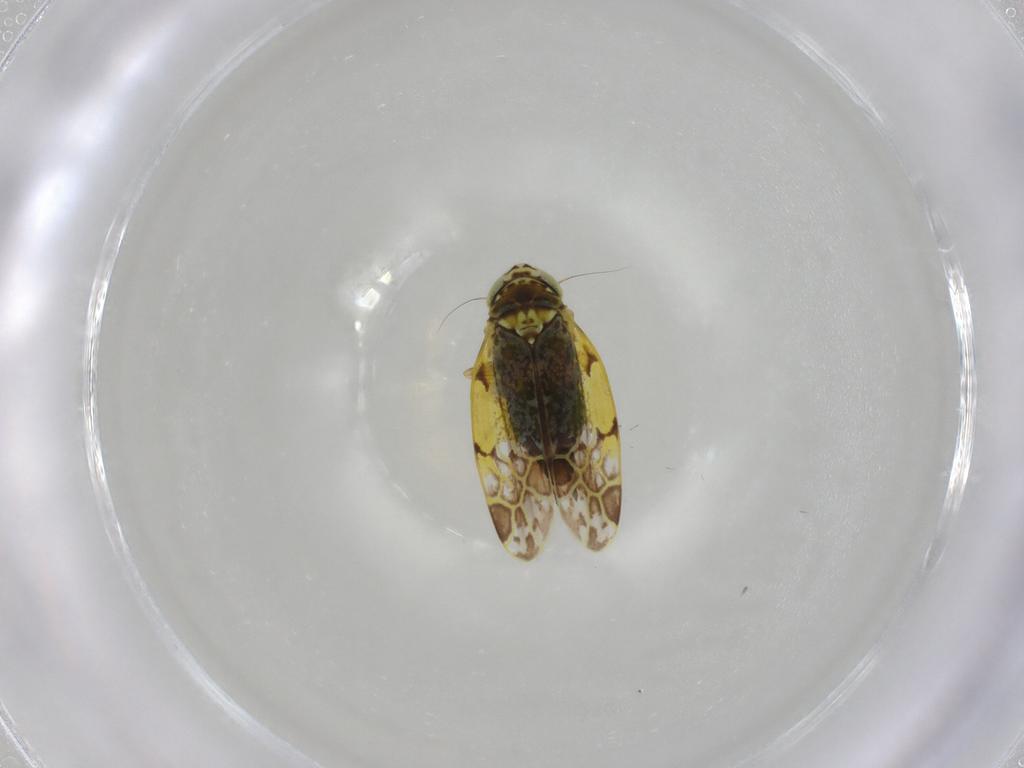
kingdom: Animalia
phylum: Arthropoda
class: Insecta
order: Hemiptera
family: Cicadellidae
